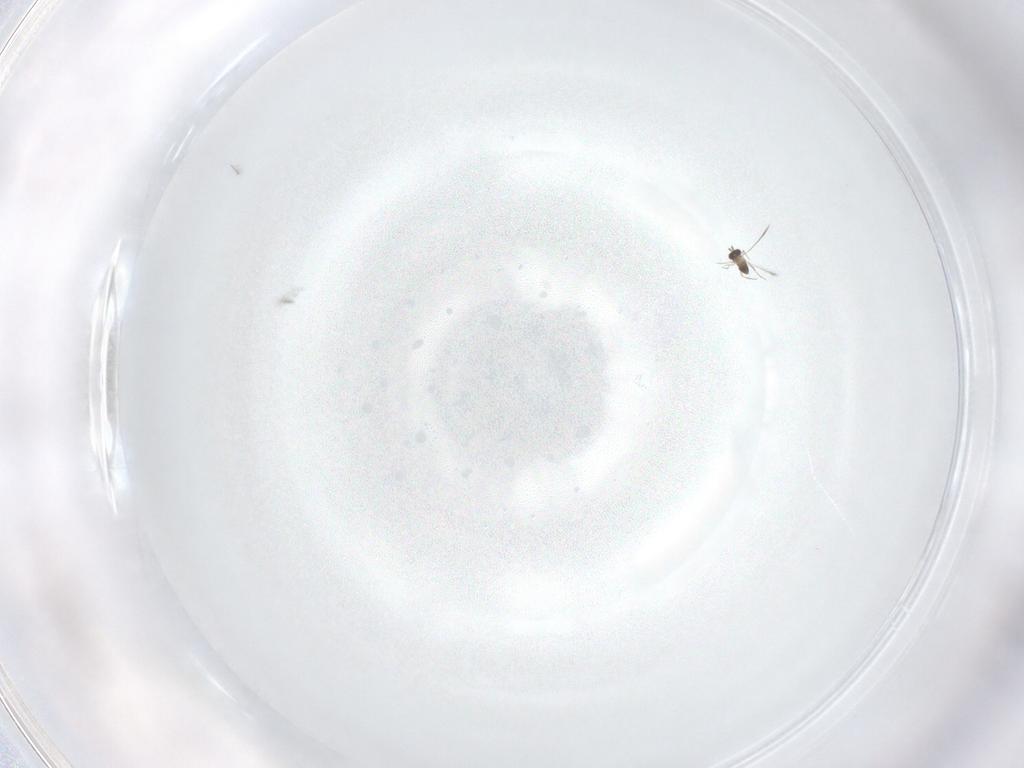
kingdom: Animalia
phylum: Arthropoda
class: Insecta
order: Hymenoptera
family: Mymaridae
